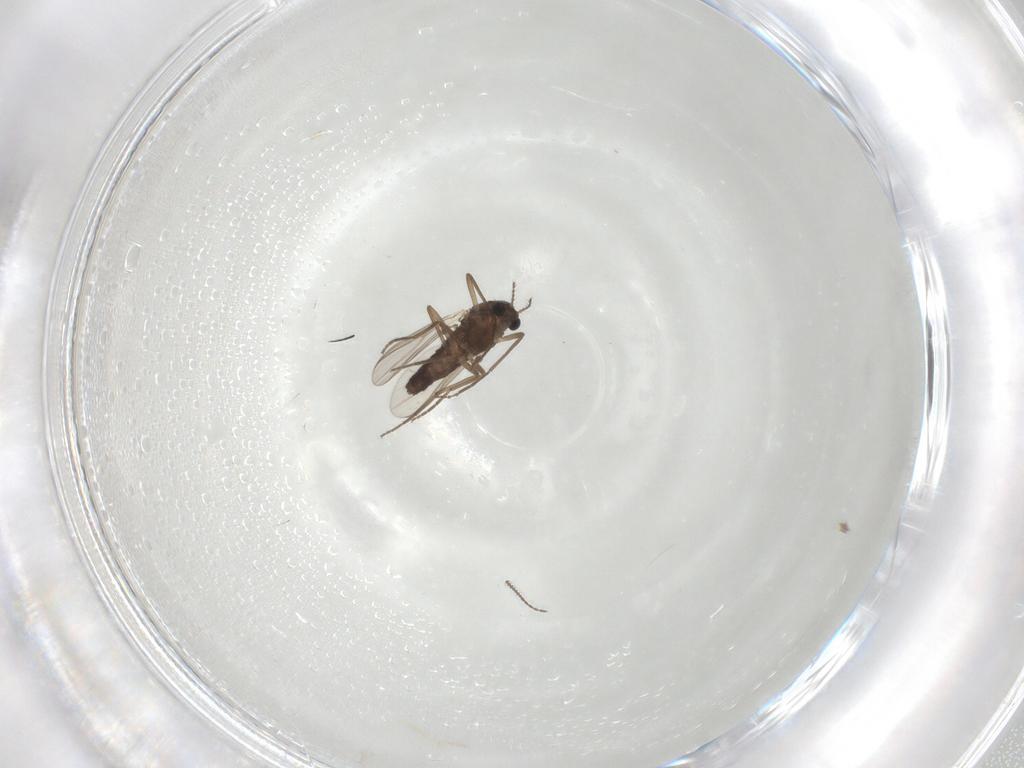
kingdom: Animalia
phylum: Arthropoda
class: Insecta
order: Diptera
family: Chironomidae
